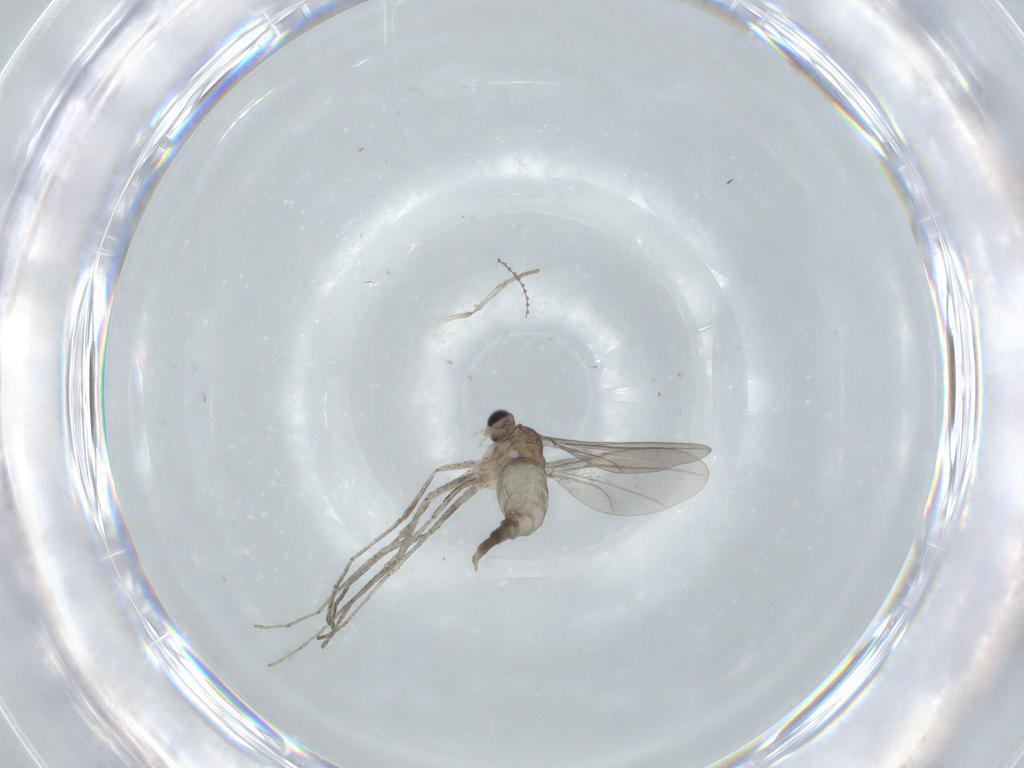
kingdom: Animalia
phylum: Arthropoda
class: Insecta
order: Diptera
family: Cecidomyiidae
